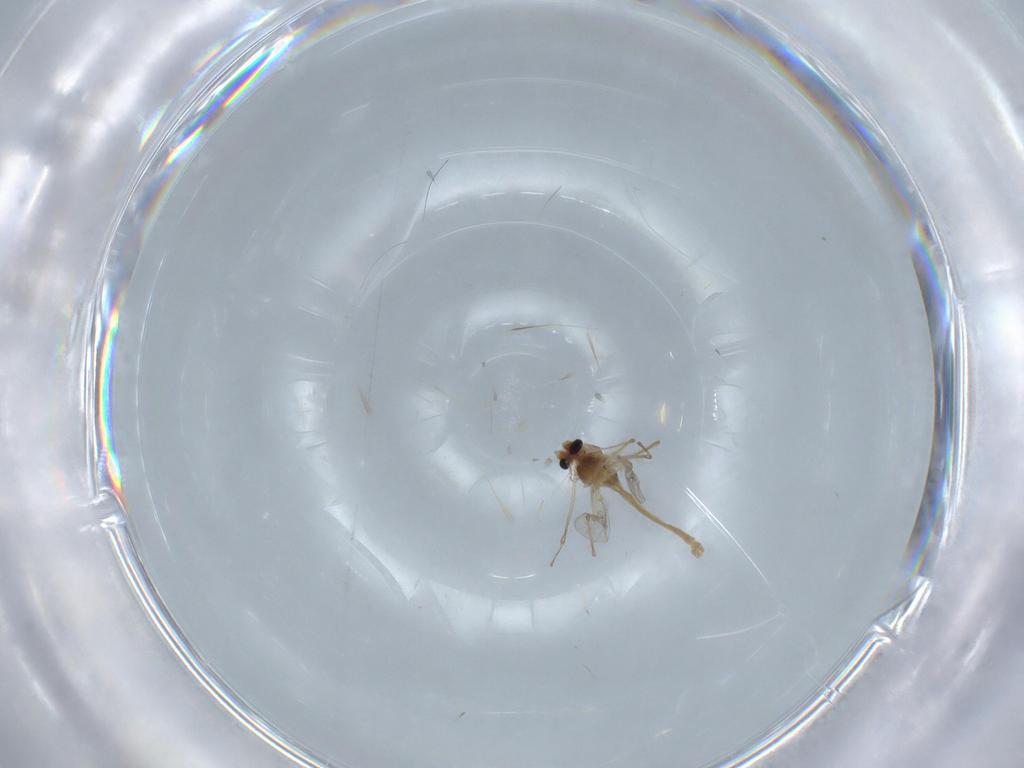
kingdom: Animalia
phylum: Arthropoda
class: Insecta
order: Diptera
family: Chironomidae
